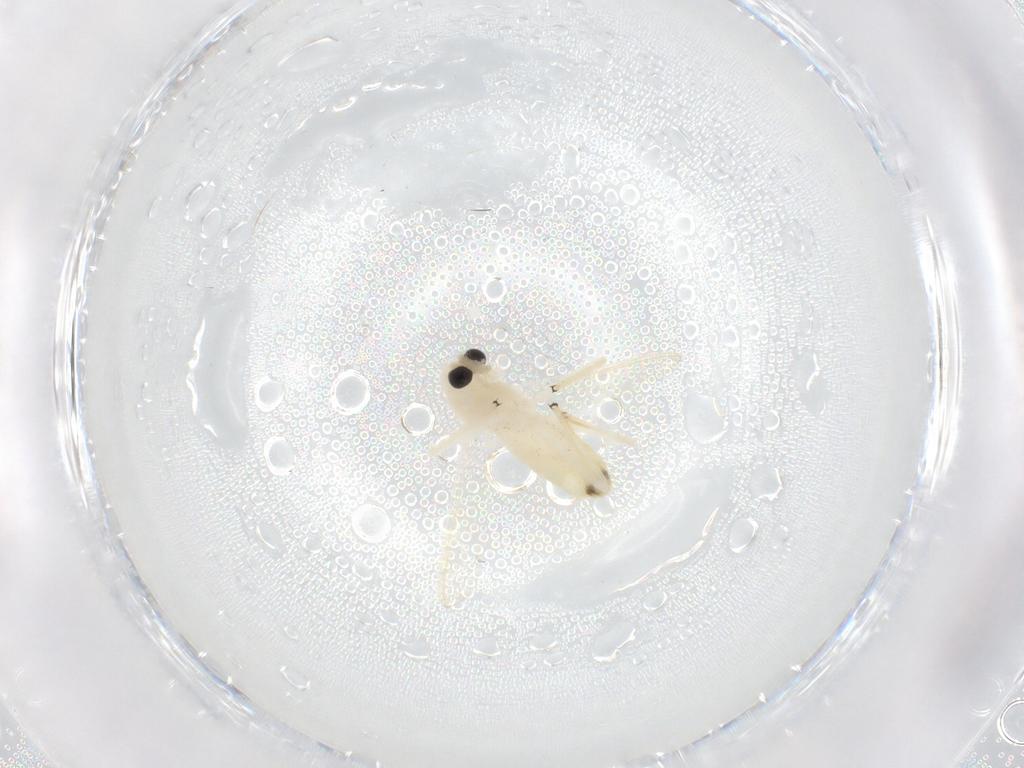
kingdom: Animalia
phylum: Arthropoda
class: Insecta
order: Diptera
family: Chironomidae
